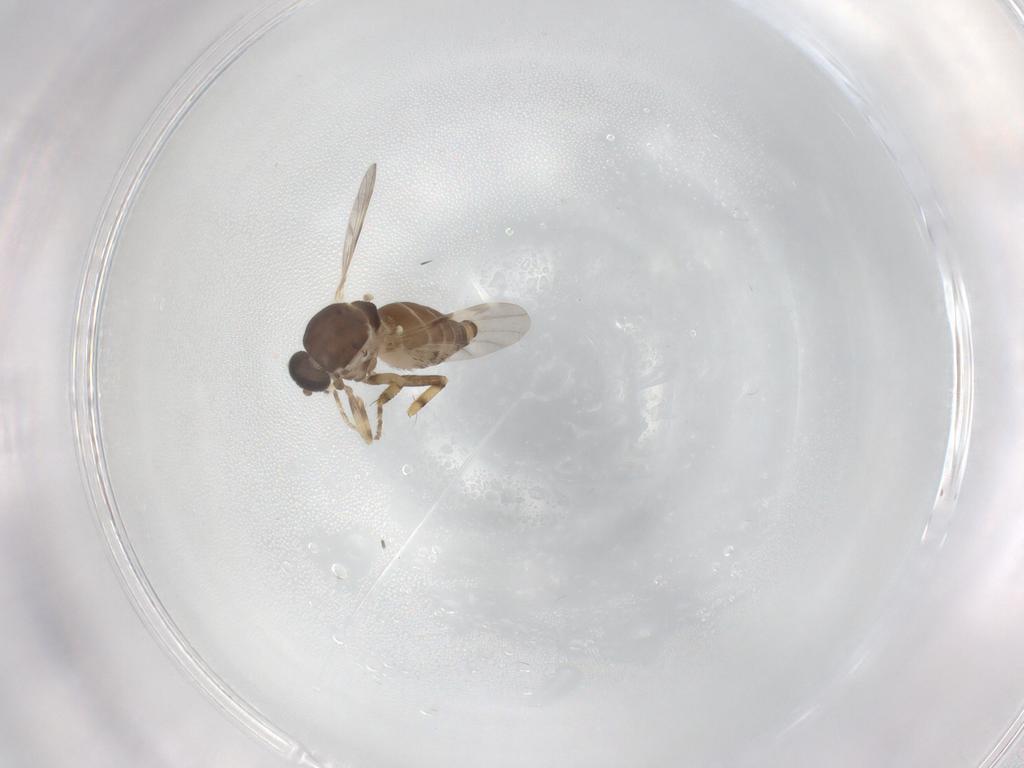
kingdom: Animalia
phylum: Arthropoda
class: Insecta
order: Diptera
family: Ceratopogonidae
